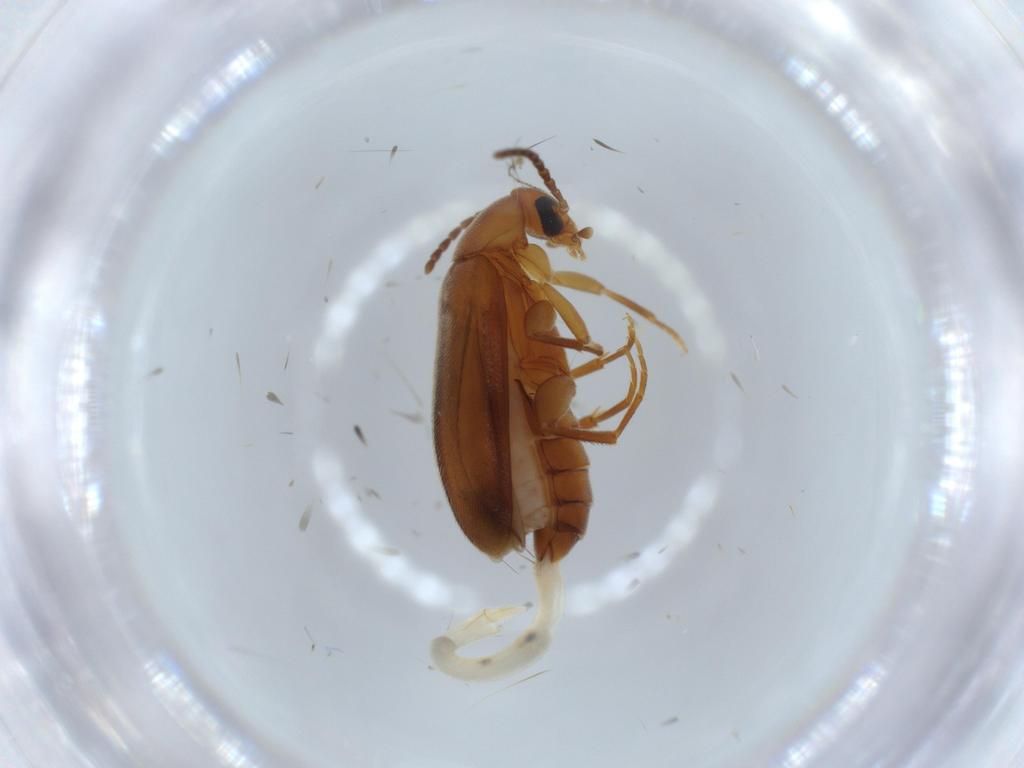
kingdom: Animalia
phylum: Arthropoda
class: Insecta
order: Coleoptera
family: Scraptiidae
